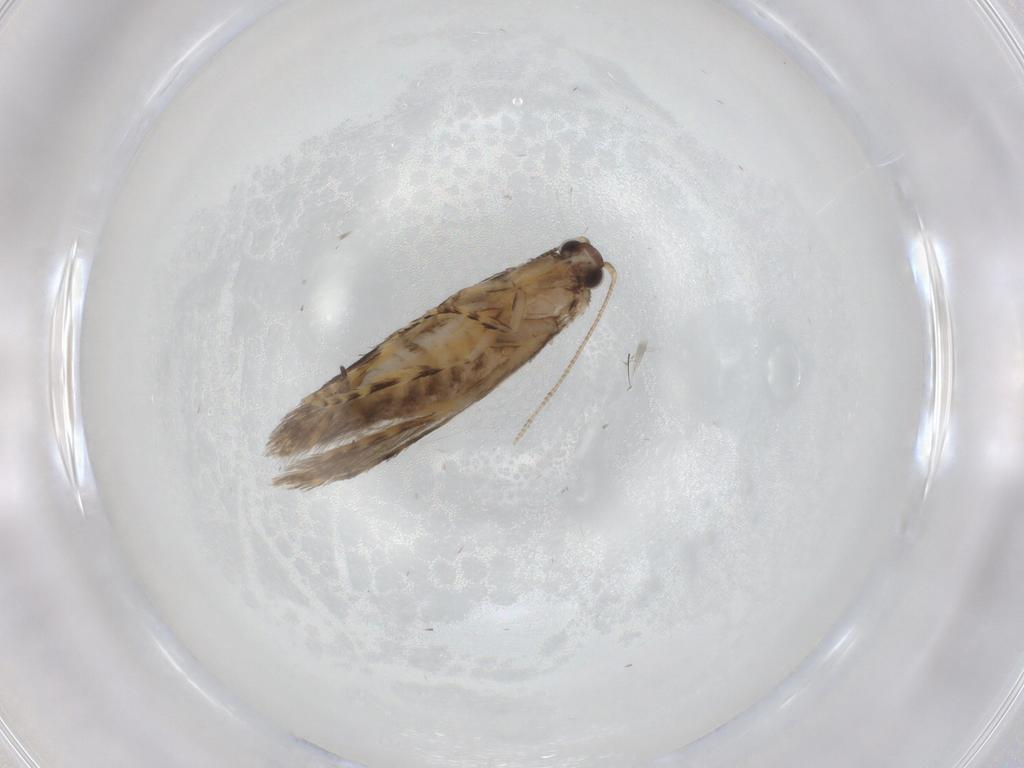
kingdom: Animalia
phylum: Arthropoda
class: Insecta
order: Lepidoptera
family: Tineidae
